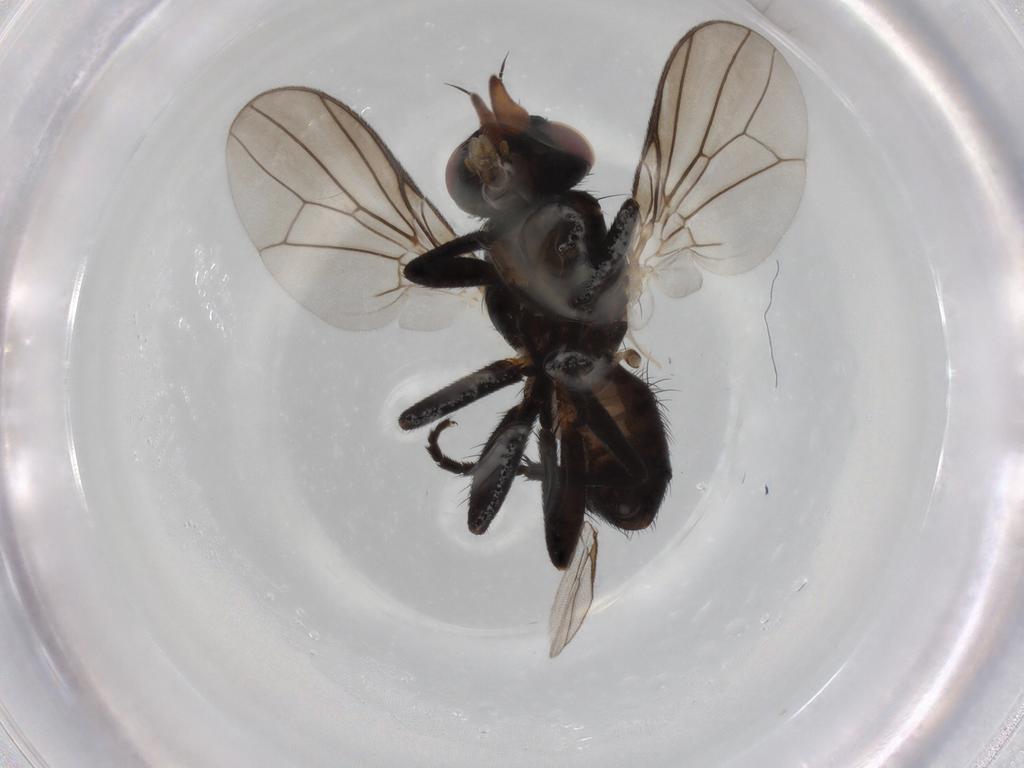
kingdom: Animalia
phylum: Arthropoda
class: Insecta
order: Diptera
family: Calliphoridae
